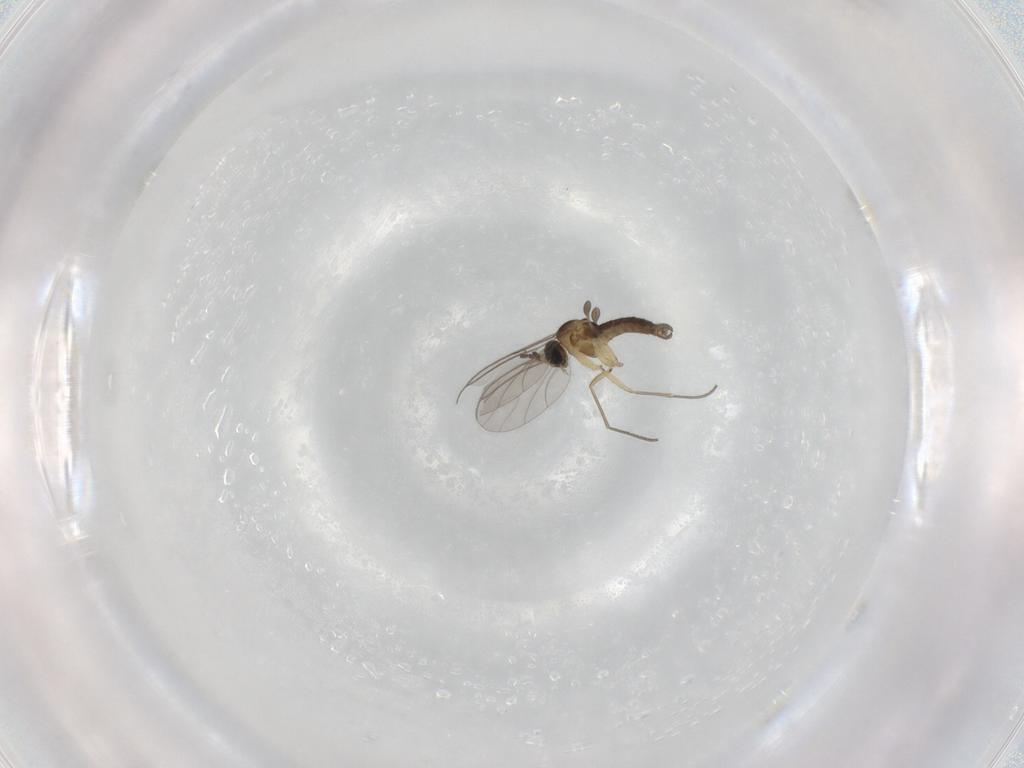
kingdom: Animalia
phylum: Arthropoda
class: Insecta
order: Diptera
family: Sciaridae
